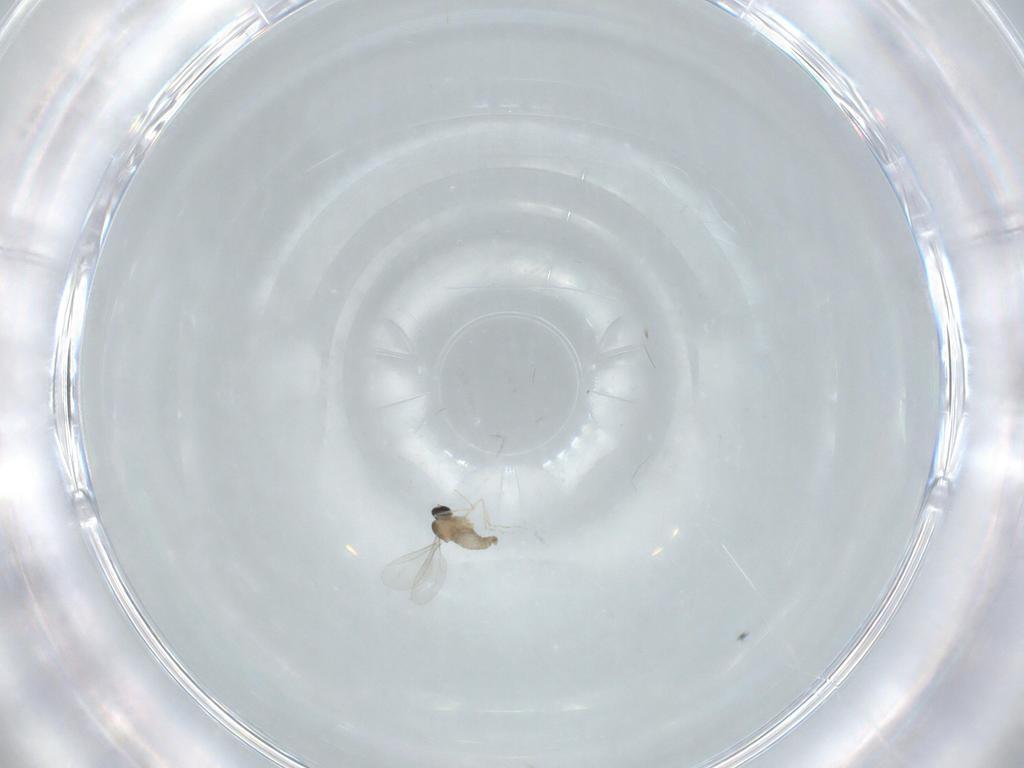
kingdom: Animalia
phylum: Arthropoda
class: Insecta
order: Diptera
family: Cecidomyiidae
